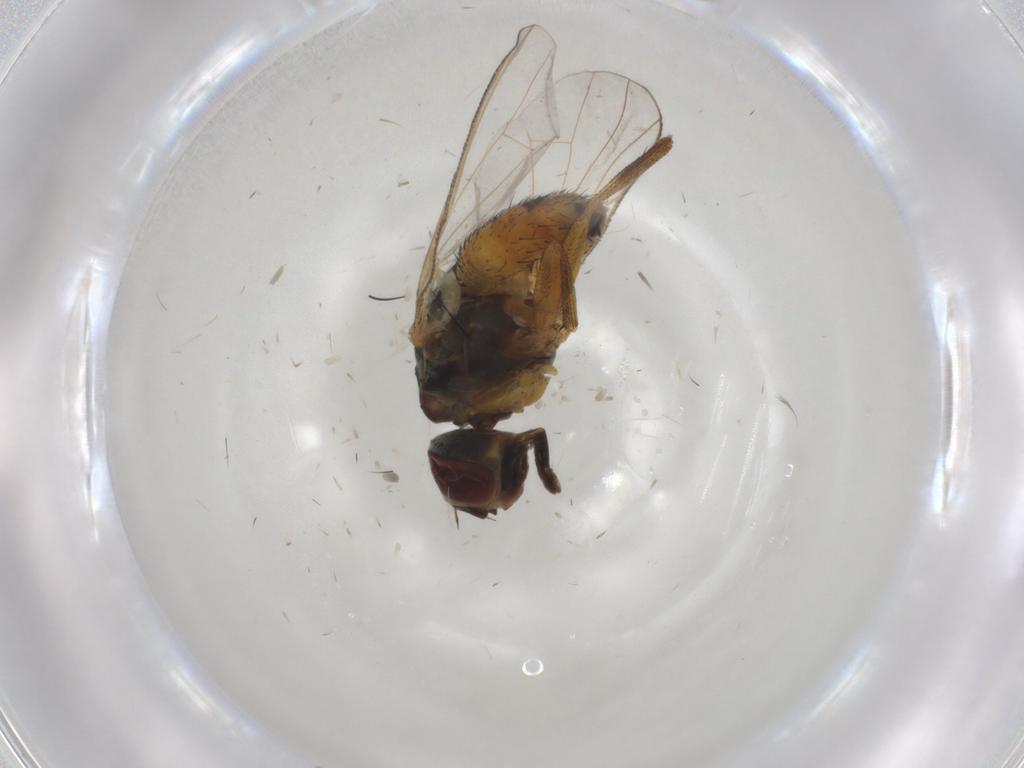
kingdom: Animalia
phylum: Arthropoda
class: Insecta
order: Diptera
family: Muscidae
